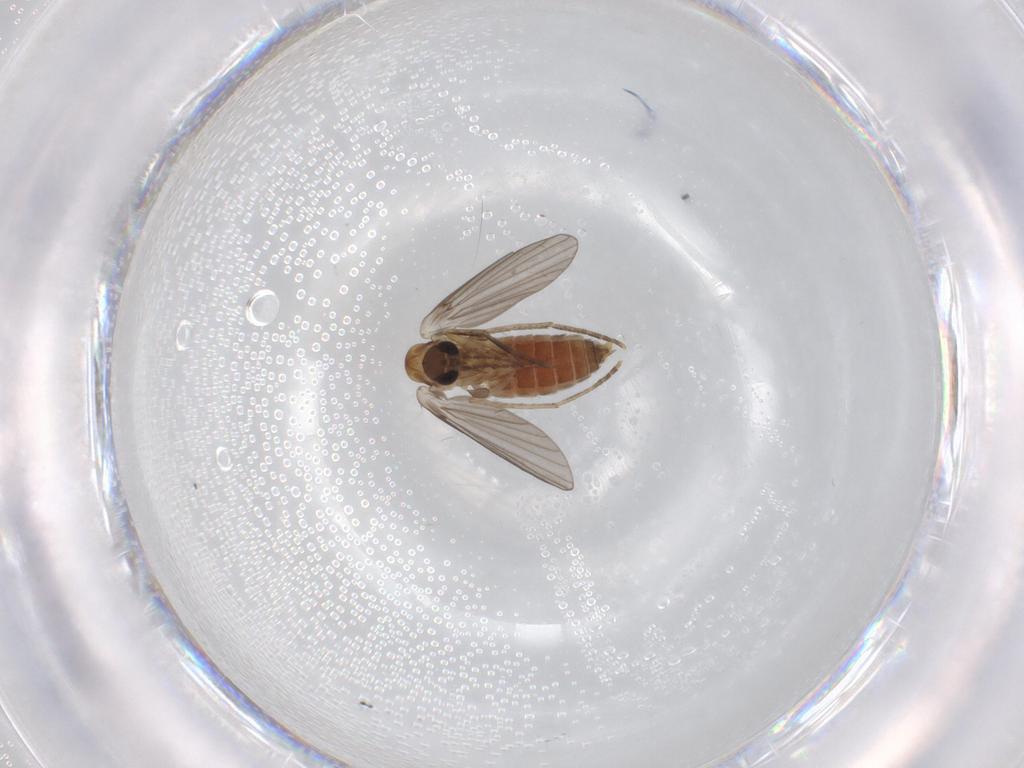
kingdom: Animalia
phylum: Arthropoda
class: Insecta
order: Diptera
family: Psychodidae
